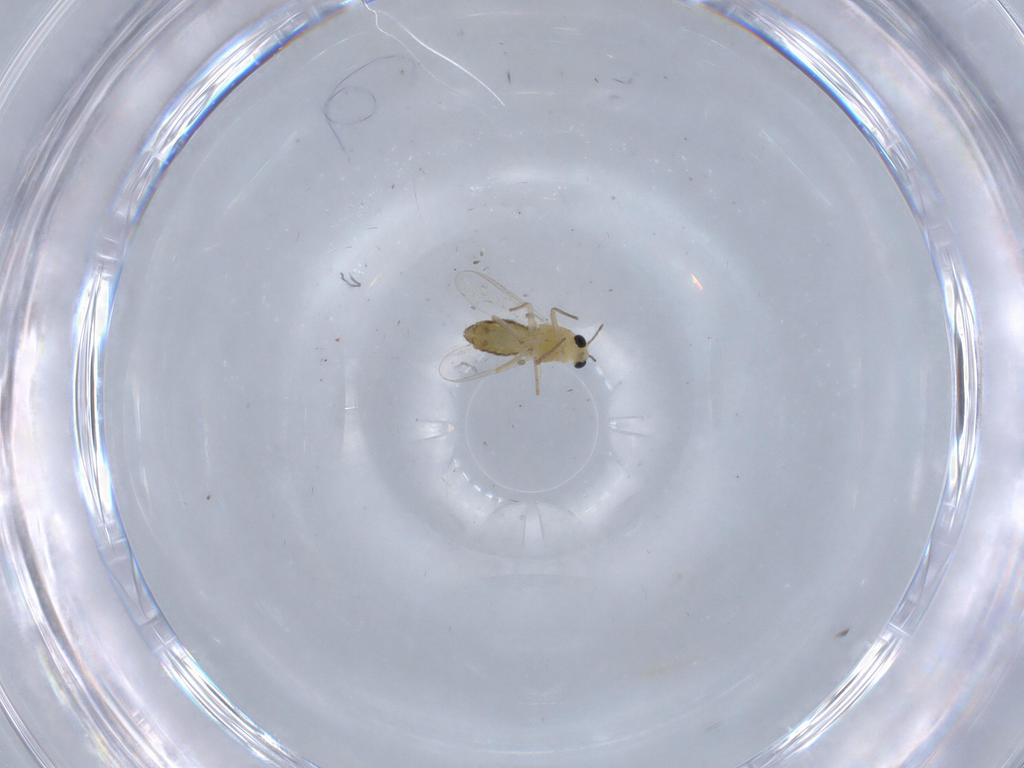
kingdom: Animalia
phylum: Arthropoda
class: Insecta
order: Diptera
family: Chironomidae
